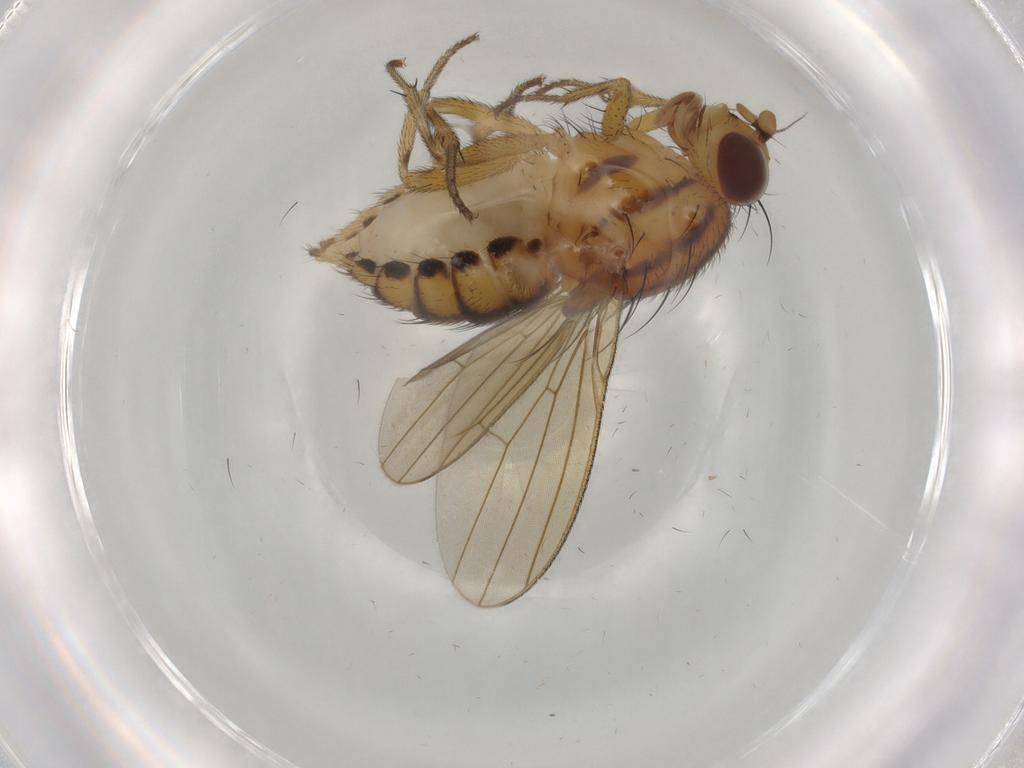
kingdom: Animalia
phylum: Arthropoda
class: Insecta
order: Diptera
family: Ceratopogonidae
